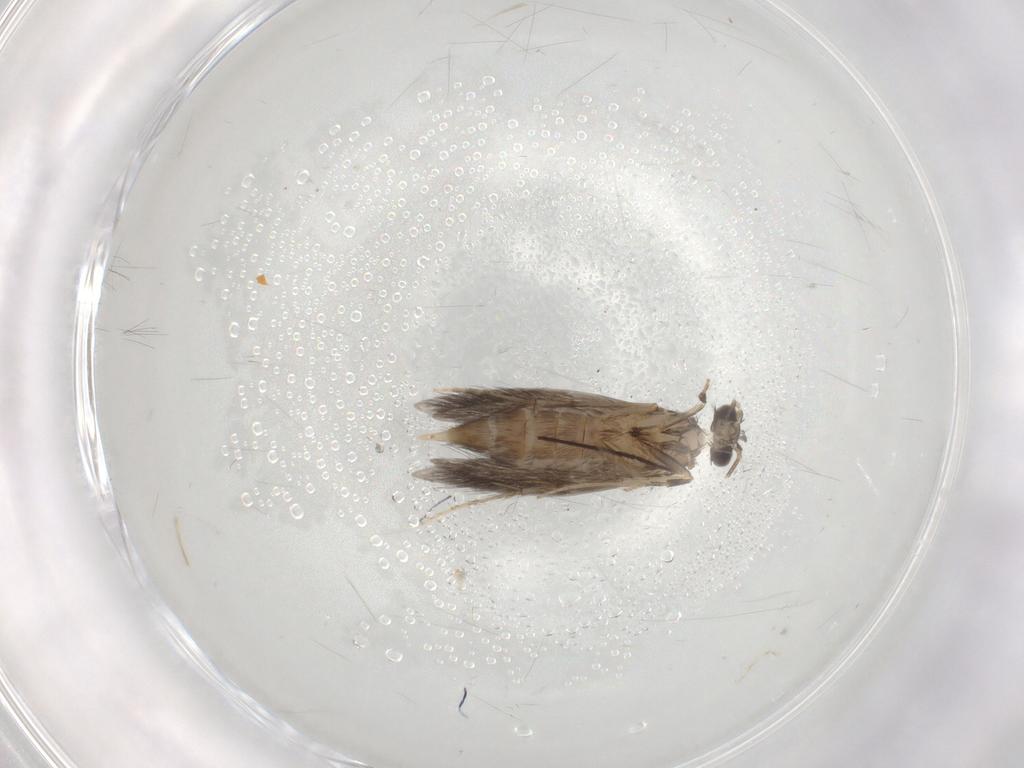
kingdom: Animalia
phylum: Arthropoda
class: Insecta
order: Trichoptera
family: Hydroptilidae
